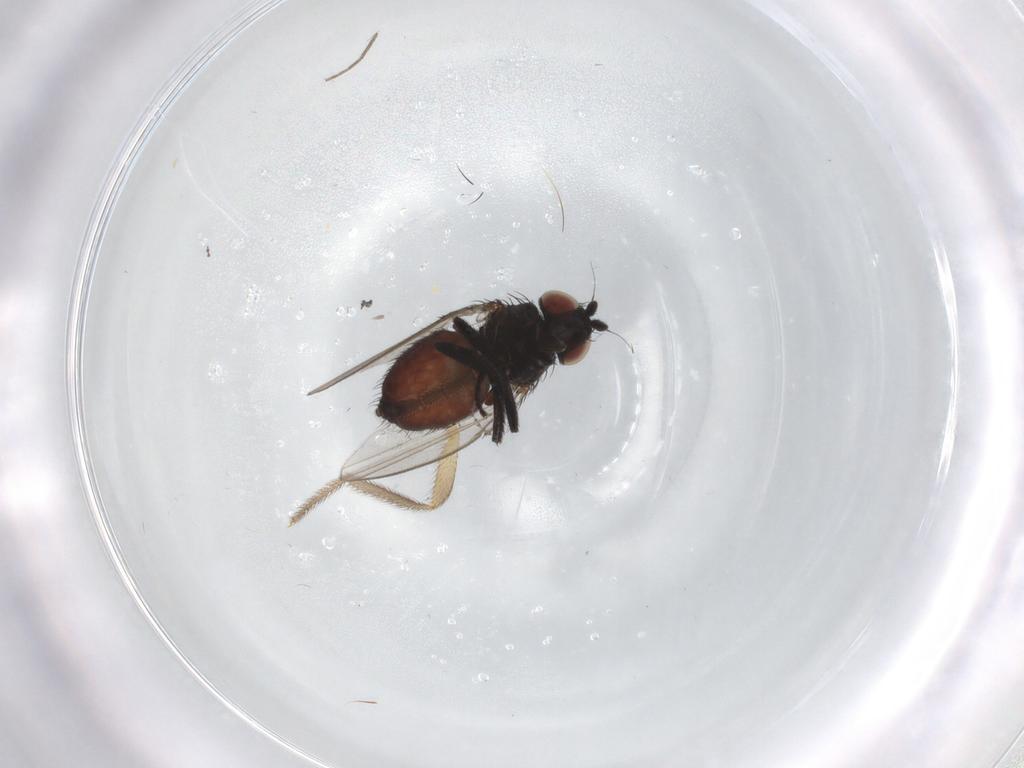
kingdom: Animalia
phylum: Arthropoda
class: Insecta
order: Diptera
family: Milichiidae
